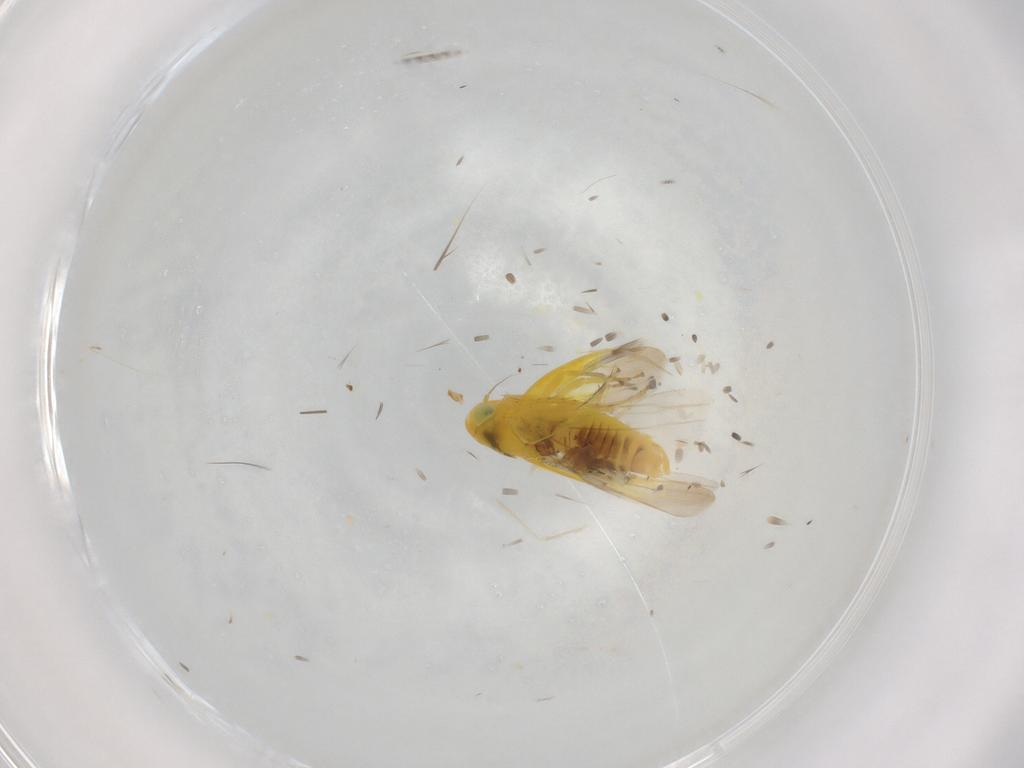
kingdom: Animalia
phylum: Arthropoda
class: Insecta
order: Hemiptera
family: Cicadellidae
